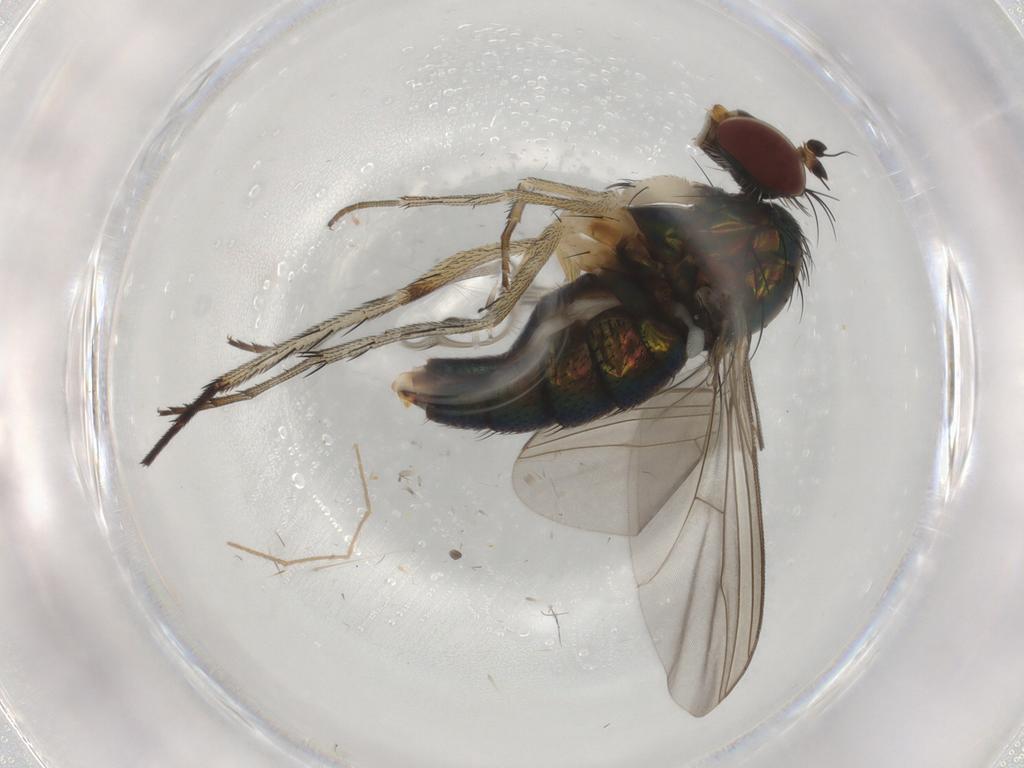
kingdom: Animalia
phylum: Arthropoda
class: Insecta
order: Diptera
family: Dolichopodidae
